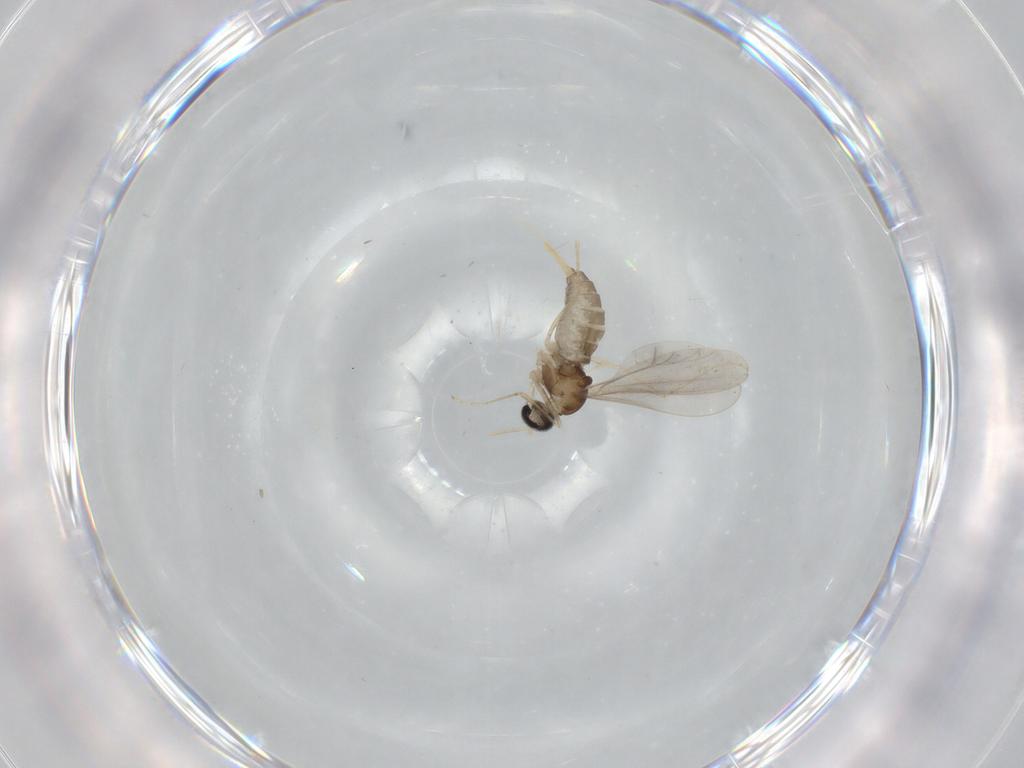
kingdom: Animalia
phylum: Arthropoda
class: Insecta
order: Diptera
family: Cecidomyiidae
